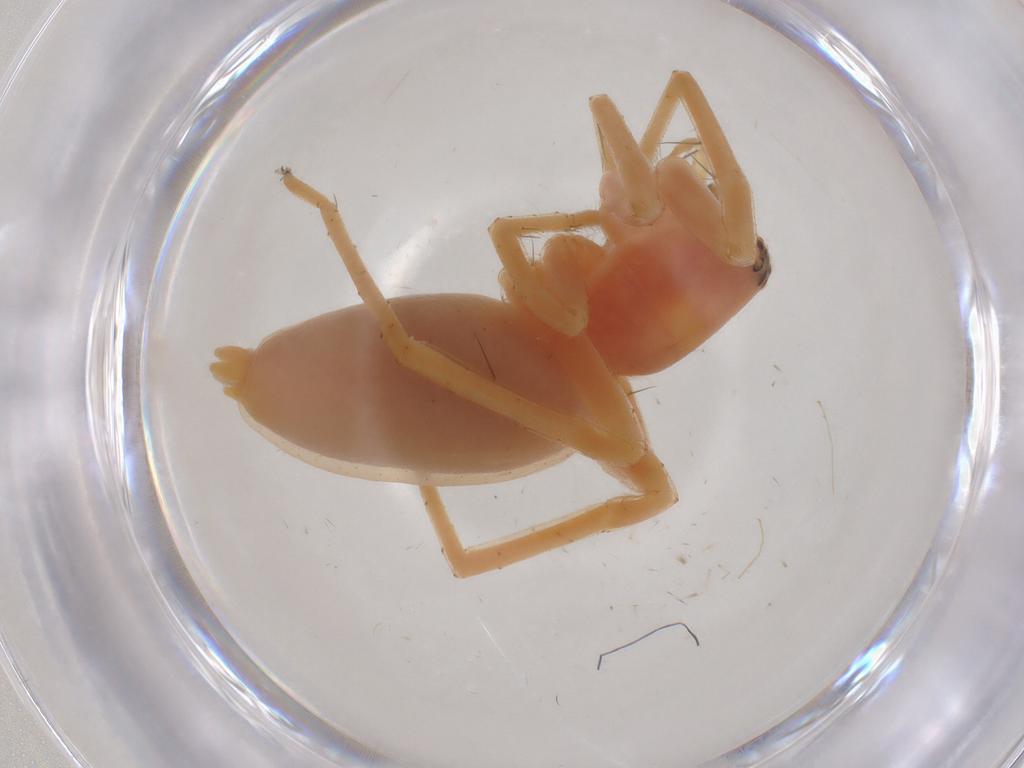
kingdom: Animalia
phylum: Arthropoda
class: Arachnida
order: Araneae
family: Anyphaenidae
